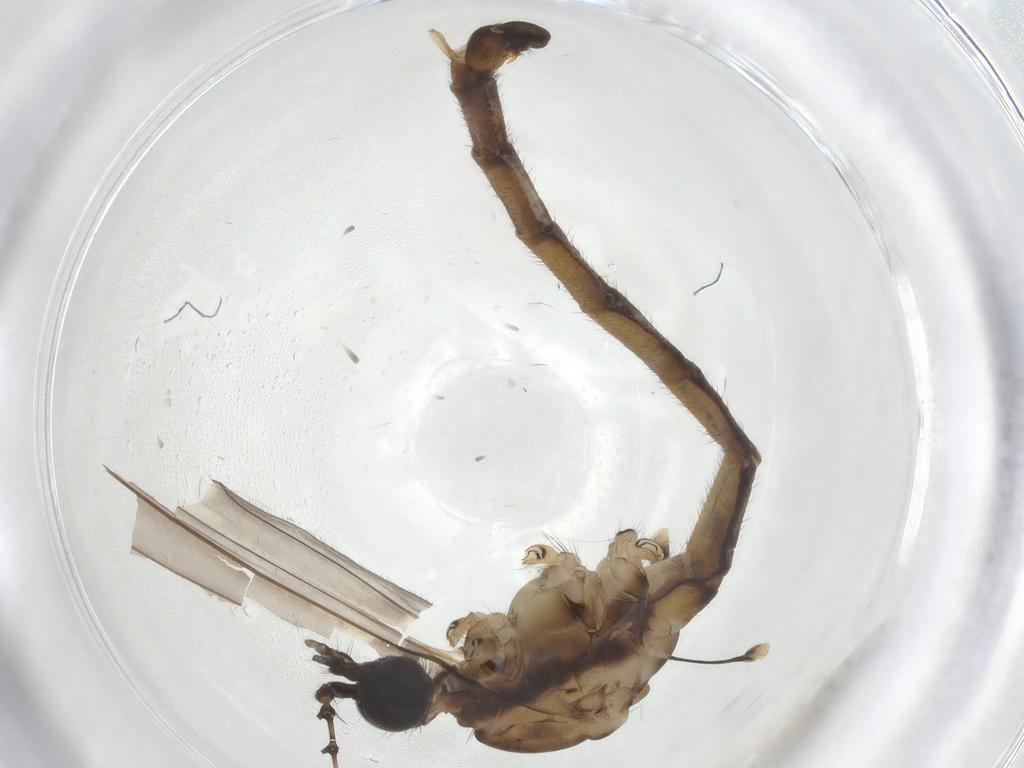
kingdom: Animalia
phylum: Arthropoda
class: Insecta
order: Diptera
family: Limoniidae
